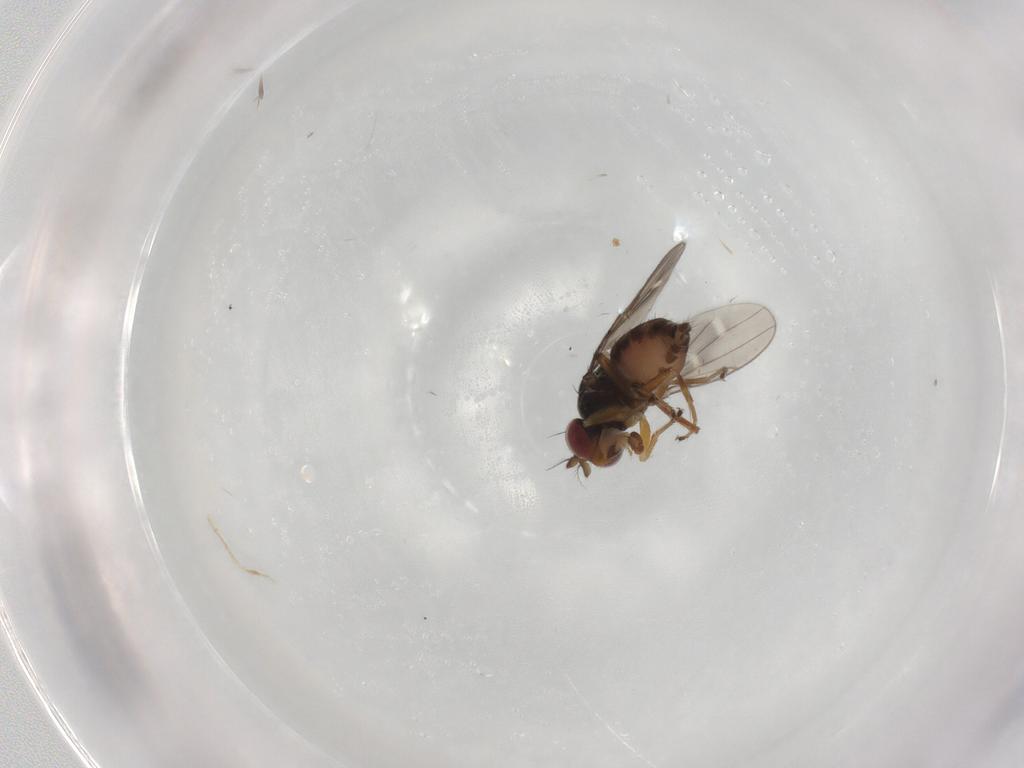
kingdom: Animalia
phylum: Arthropoda
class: Insecta
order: Diptera
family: Ephydridae
